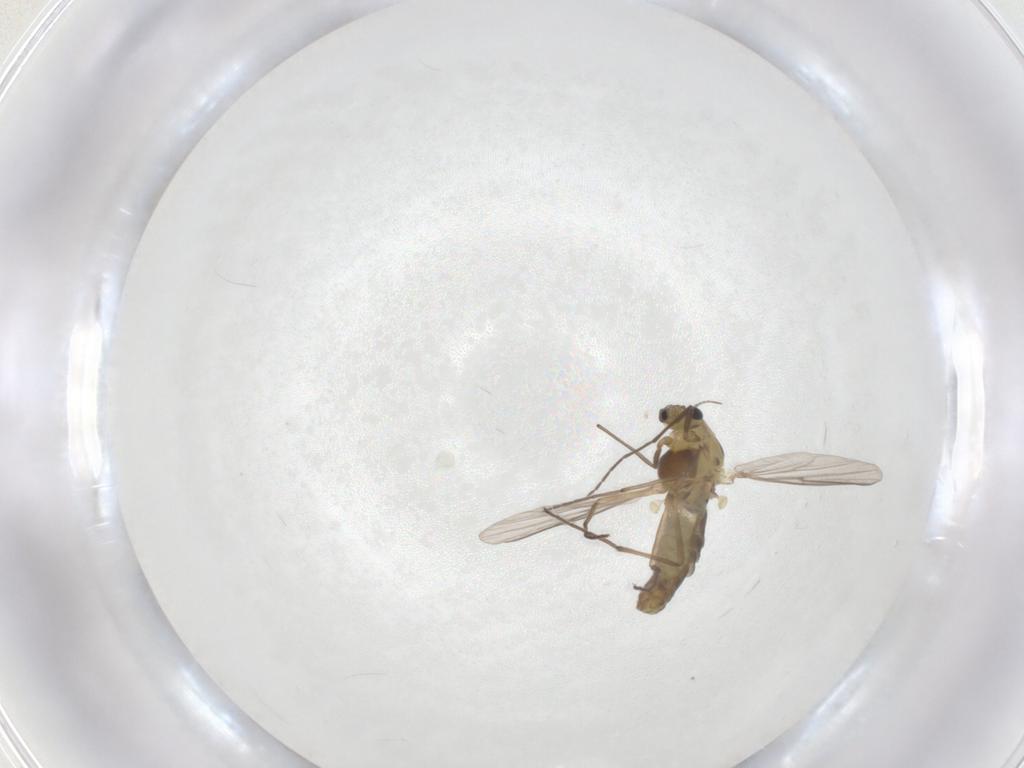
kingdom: Animalia
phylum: Arthropoda
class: Insecta
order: Diptera
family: Chironomidae
